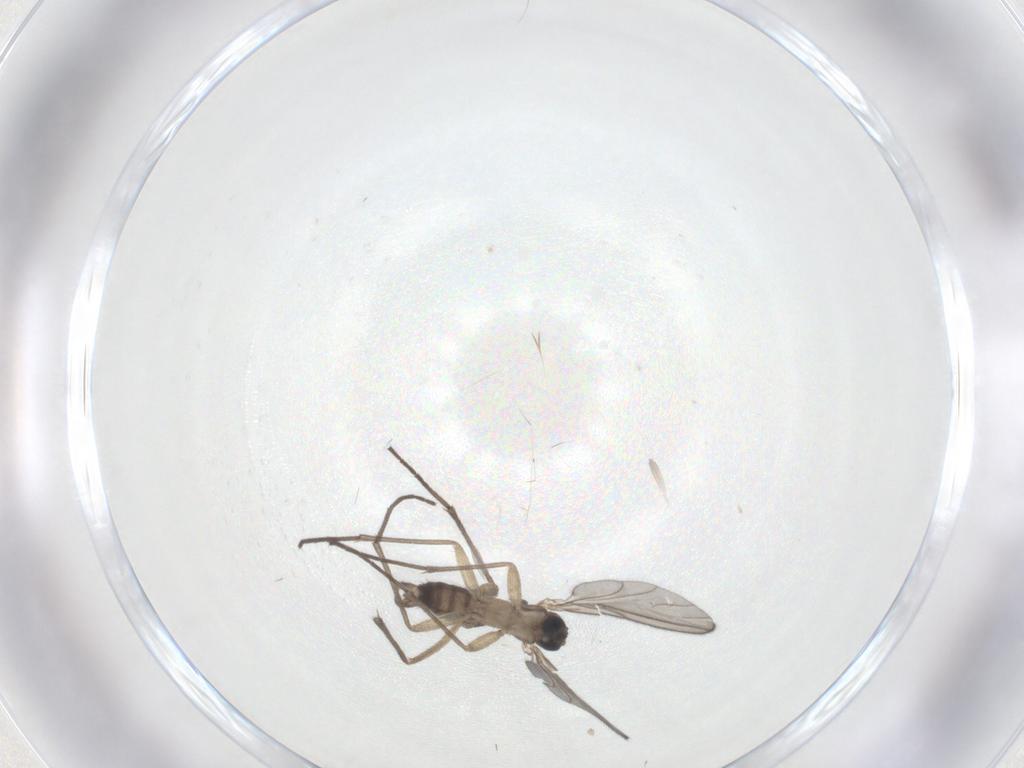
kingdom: Animalia
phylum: Arthropoda
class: Insecta
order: Diptera
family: Sciaridae
